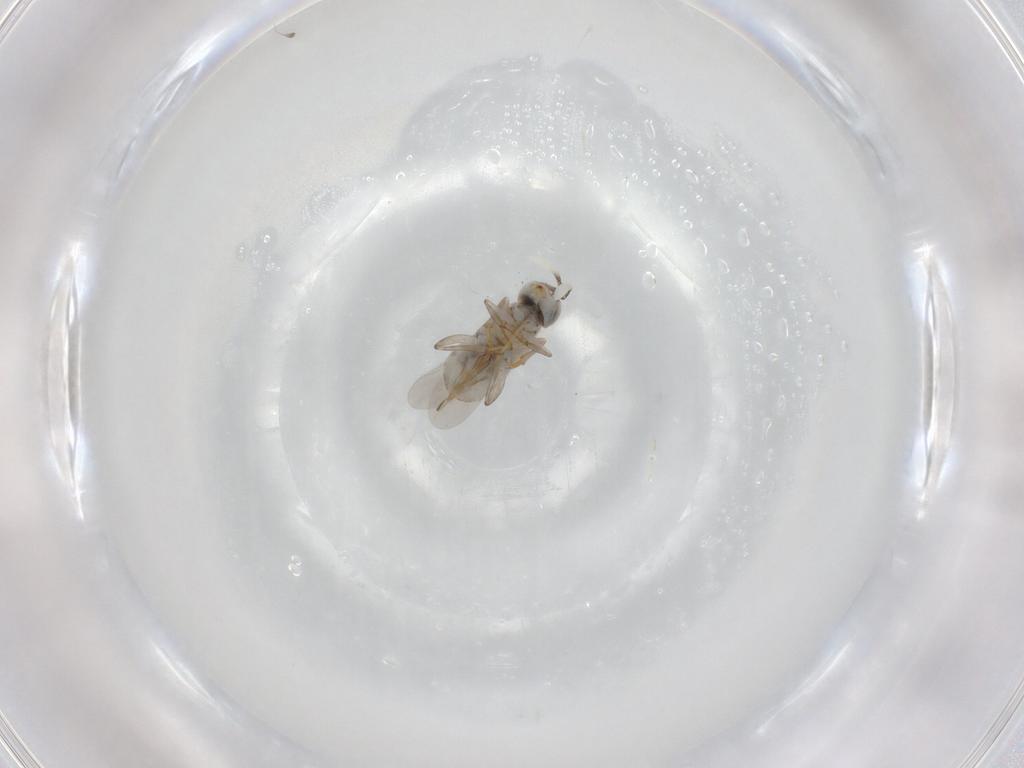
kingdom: Animalia
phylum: Arthropoda
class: Insecta
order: Hymenoptera
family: Encyrtidae
